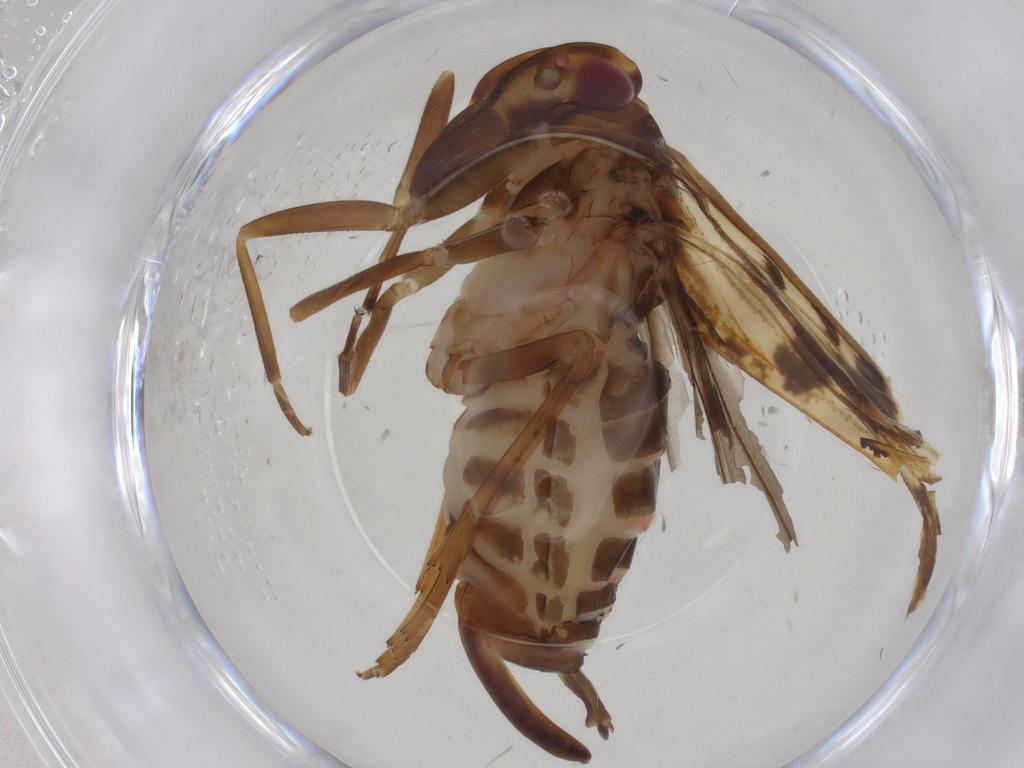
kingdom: Animalia
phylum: Arthropoda
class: Insecta
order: Hemiptera
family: Cixiidae
